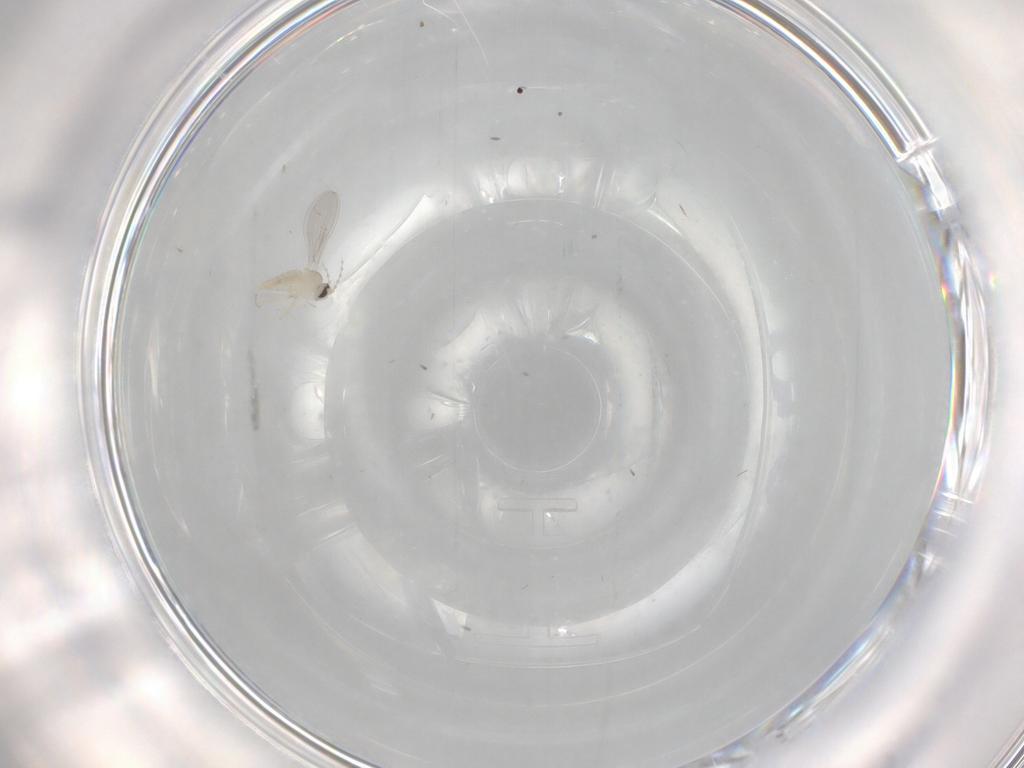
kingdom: Animalia
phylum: Arthropoda
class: Insecta
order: Diptera
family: Cecidomyiidae
